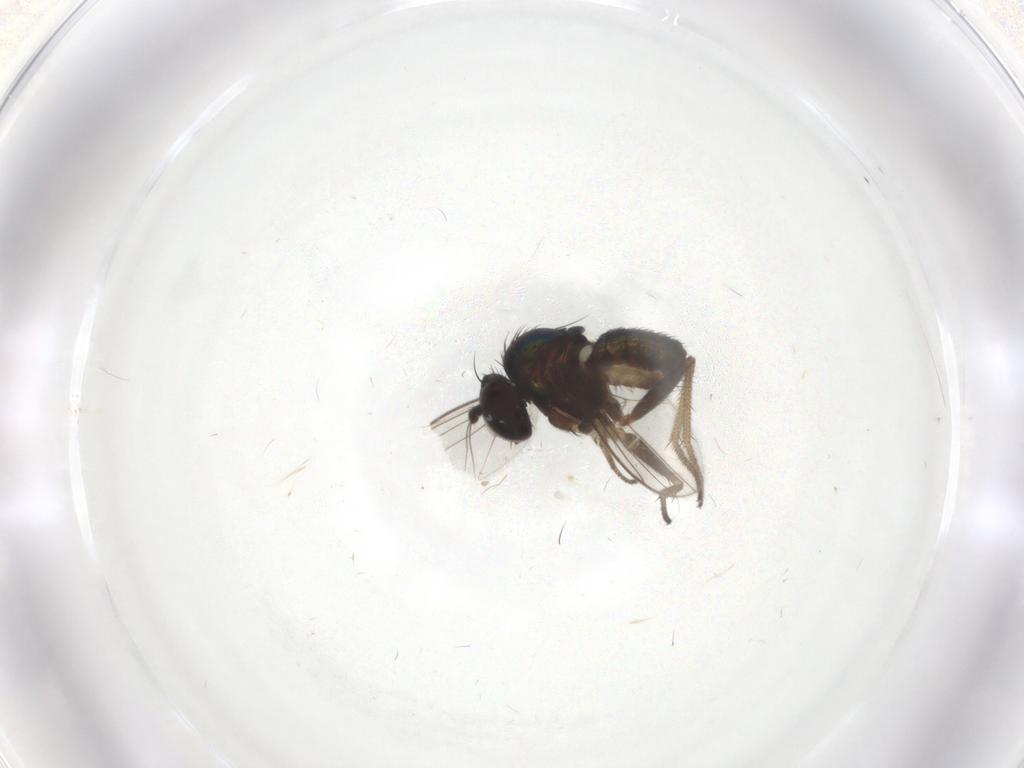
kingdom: Animalia
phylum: Arthropoda
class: Insecta
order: Diptera
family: Dolichopodidae
